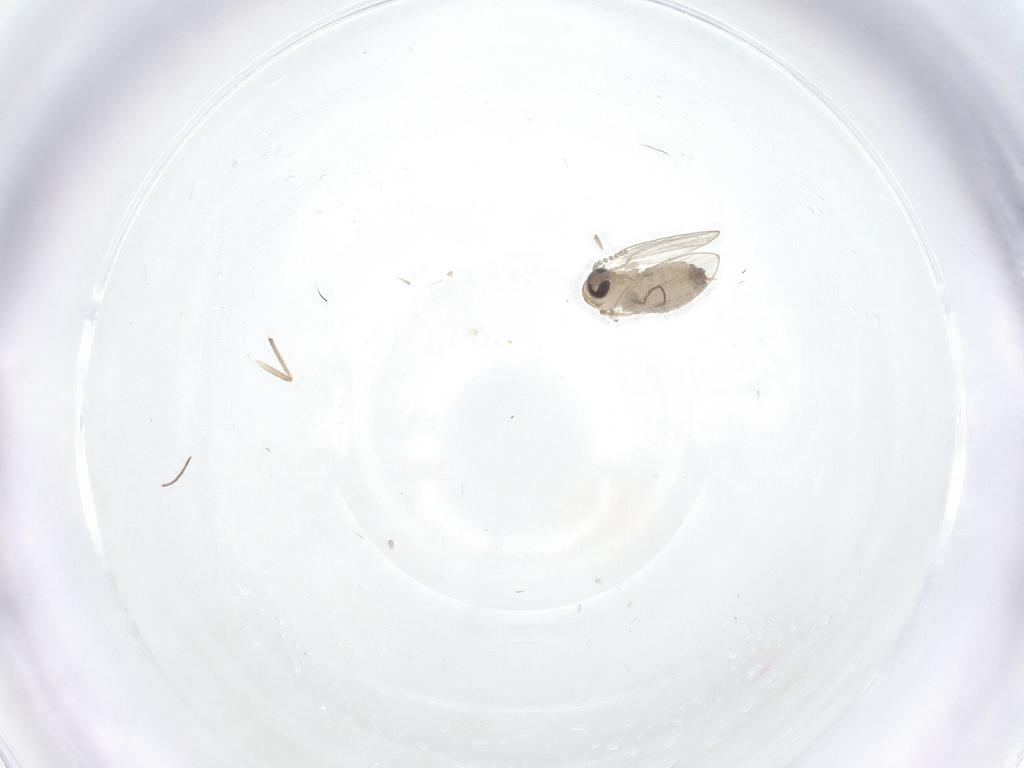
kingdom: Animalia
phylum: Arthropoda
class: Insecta
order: Diptera
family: Psychodidae
